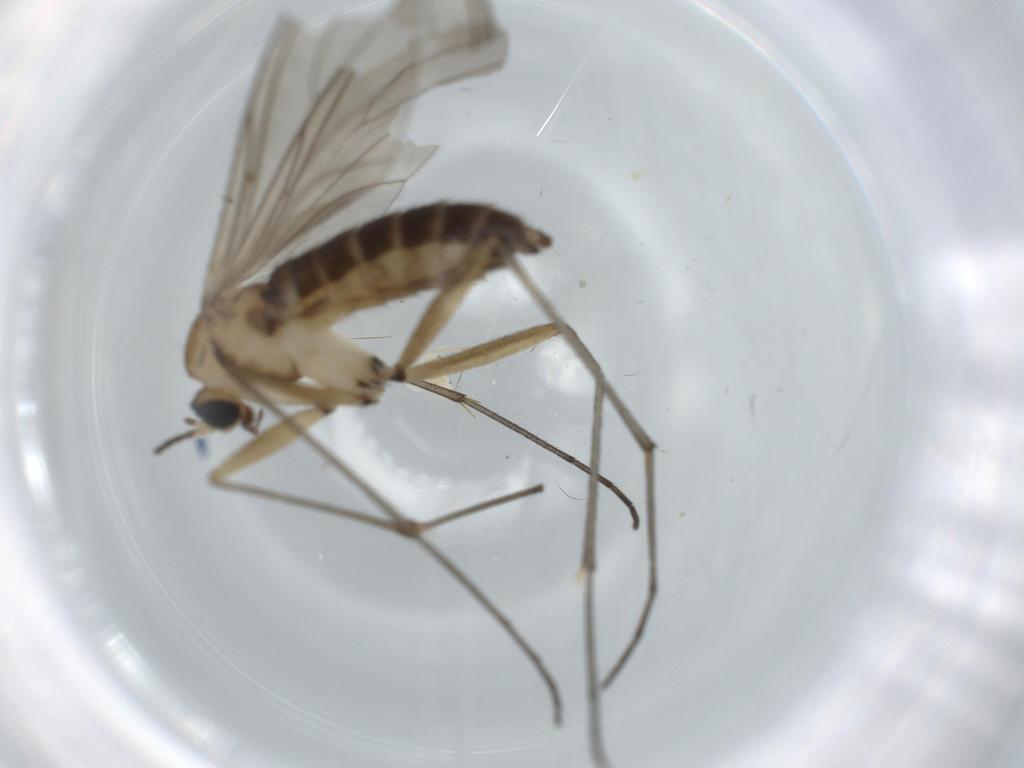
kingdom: Animalia
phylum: Arthropoda
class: Insecta
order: Diptera
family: Sciaridae
